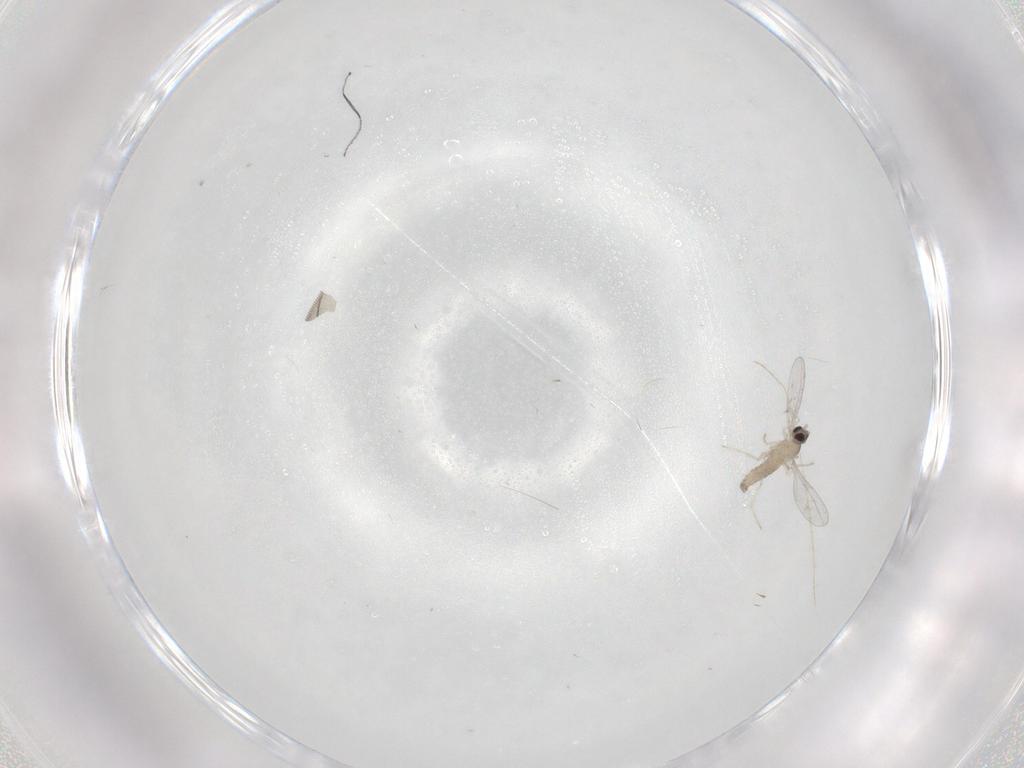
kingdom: Animalia
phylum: Arthropoda
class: Insecta
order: Diptera
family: Cecidomyiidae
